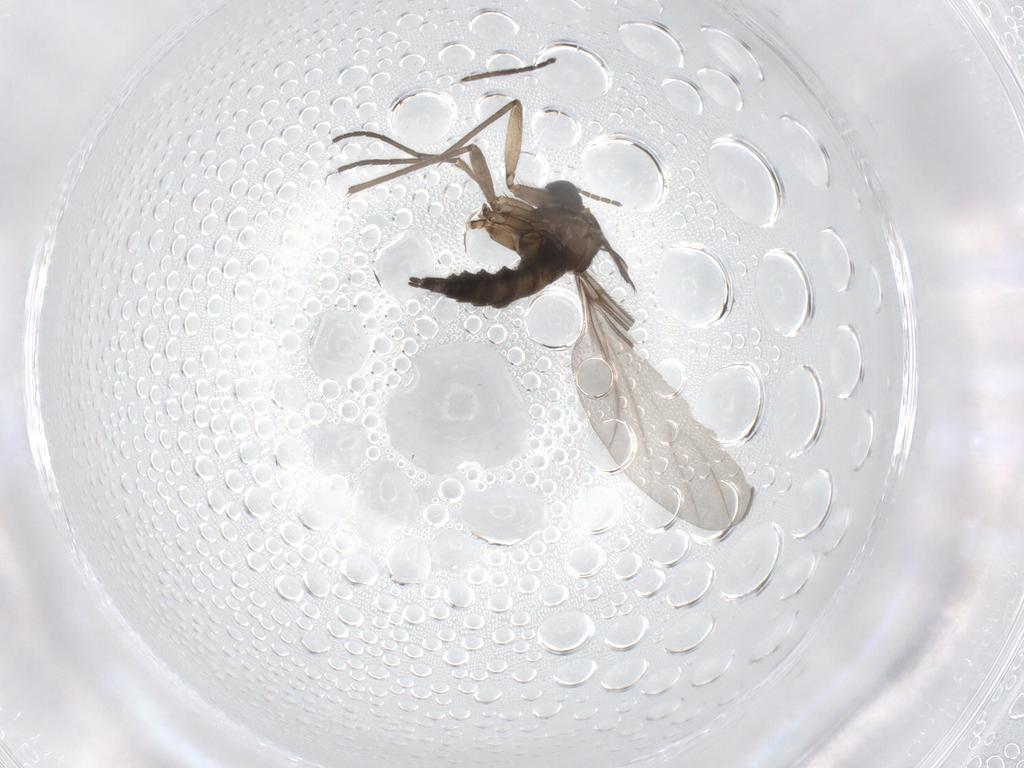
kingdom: Animalia
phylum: Arthropoda
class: Insecta
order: Diptera
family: Sciaridae
